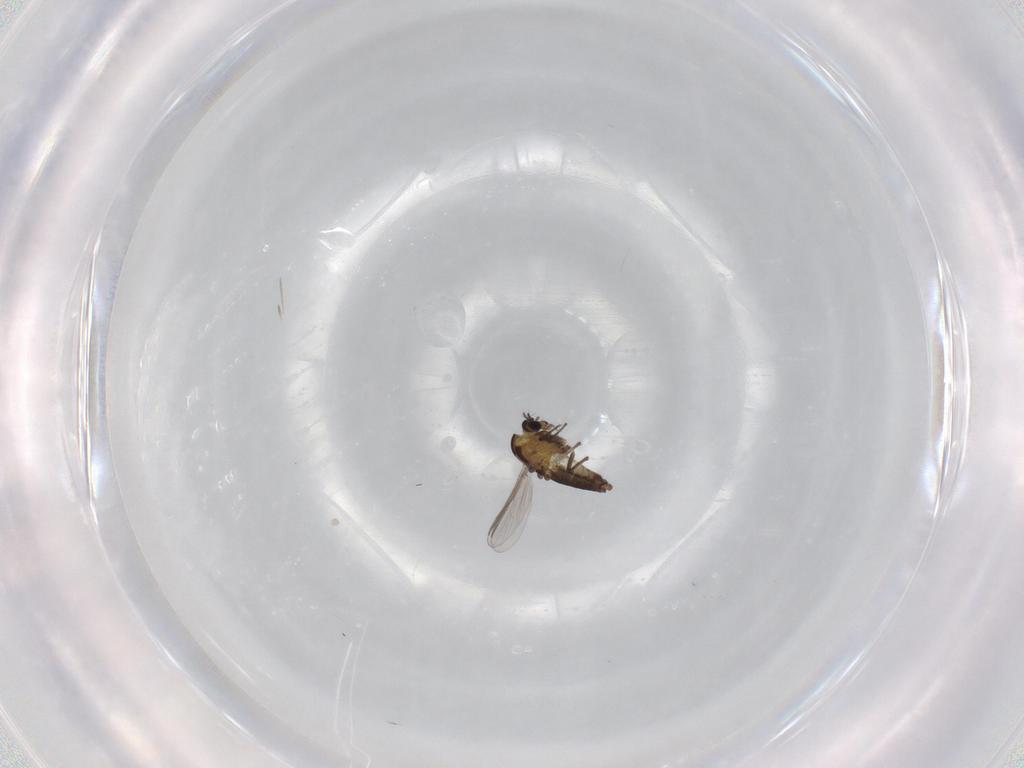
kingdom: Animalia
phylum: Arthropoda
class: Insecta
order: Diptera
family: Chironomidae
